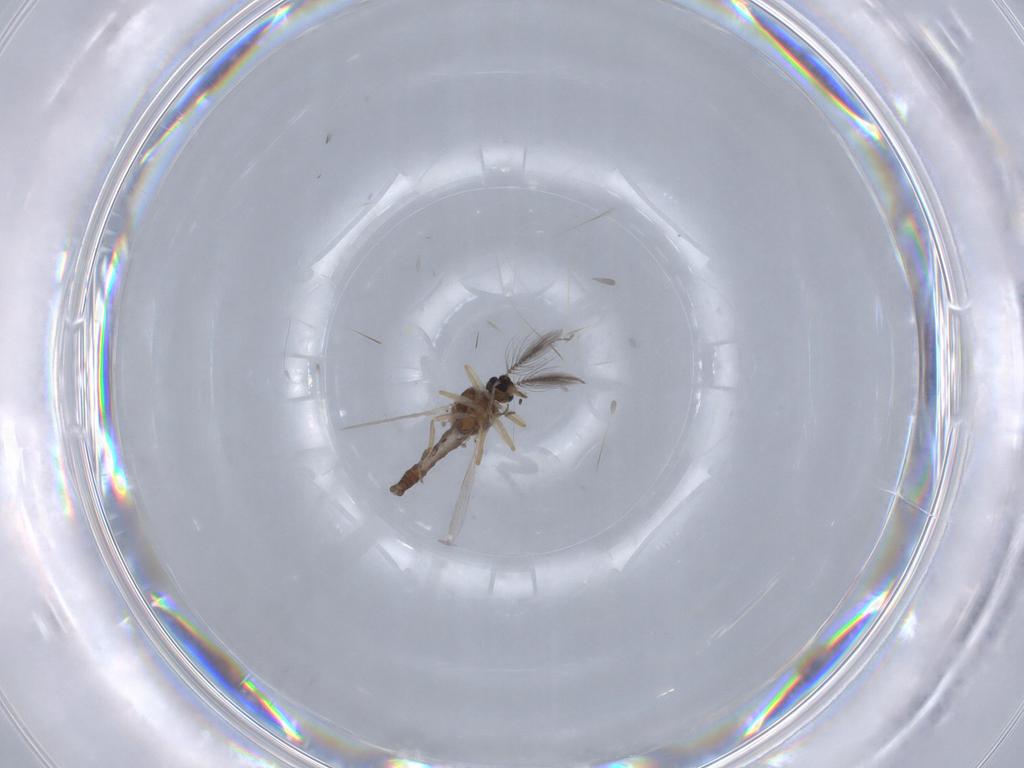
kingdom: Animalia
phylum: Arthropoda
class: Insecta
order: Diptera
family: Ceratopogonidae
